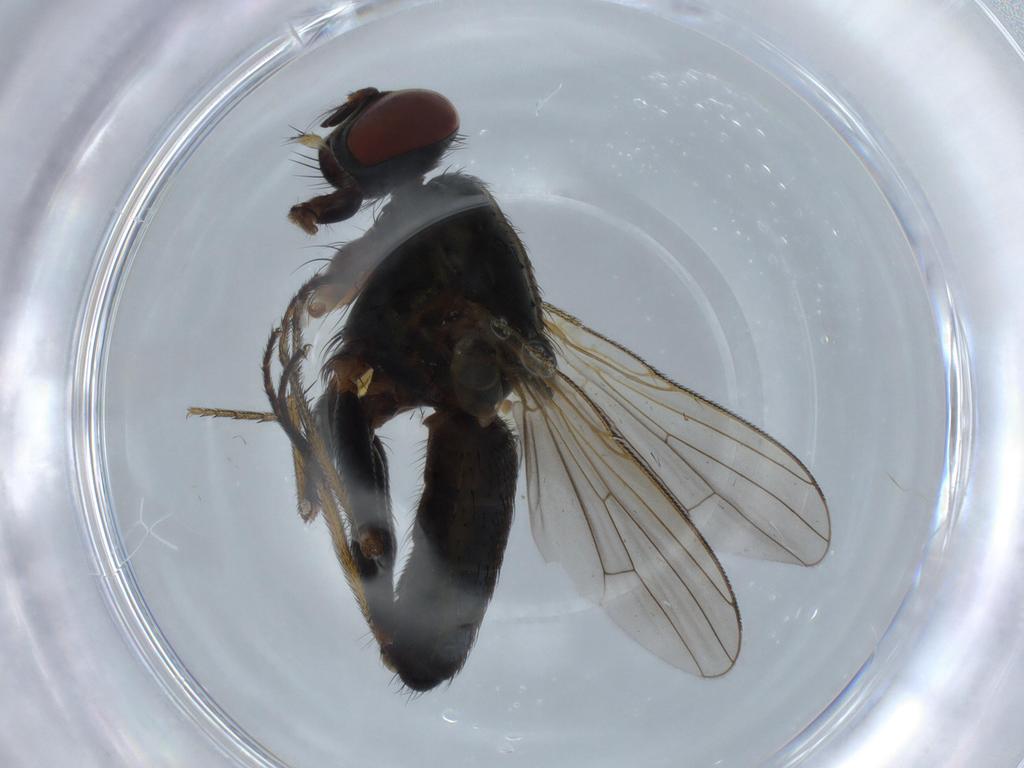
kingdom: Animalia
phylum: Arthropoda
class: Insecta
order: Diptera
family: Muscidae
